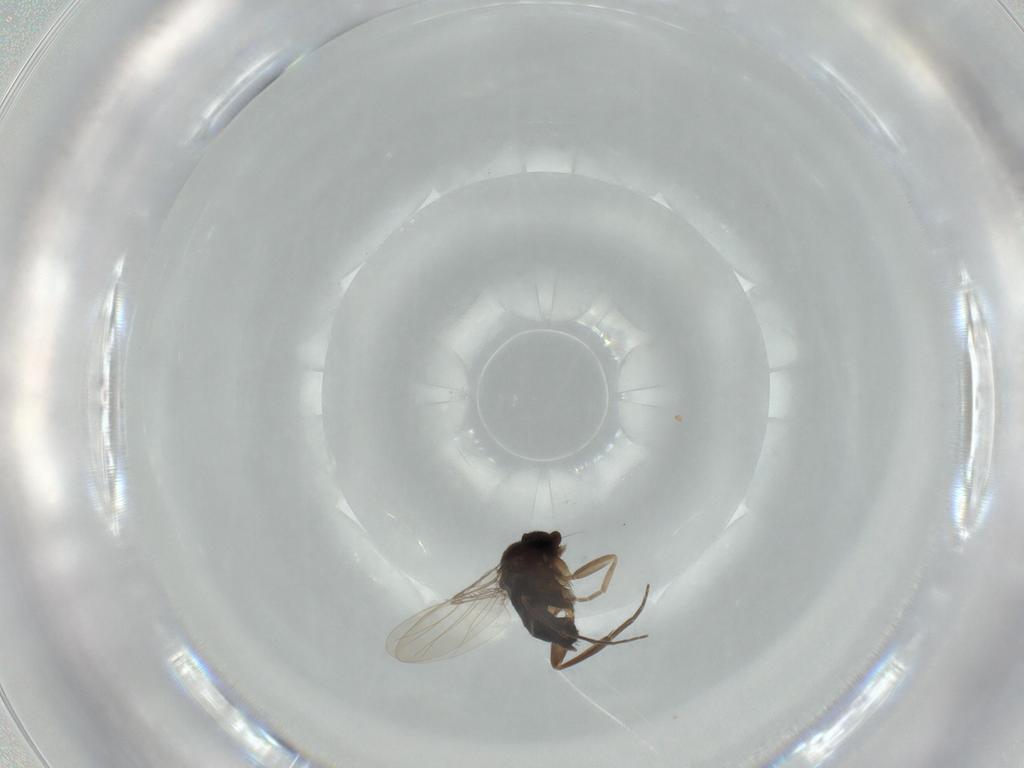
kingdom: Animalia
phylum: Arthropoda
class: Insecta
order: Diptera
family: Phoridae
